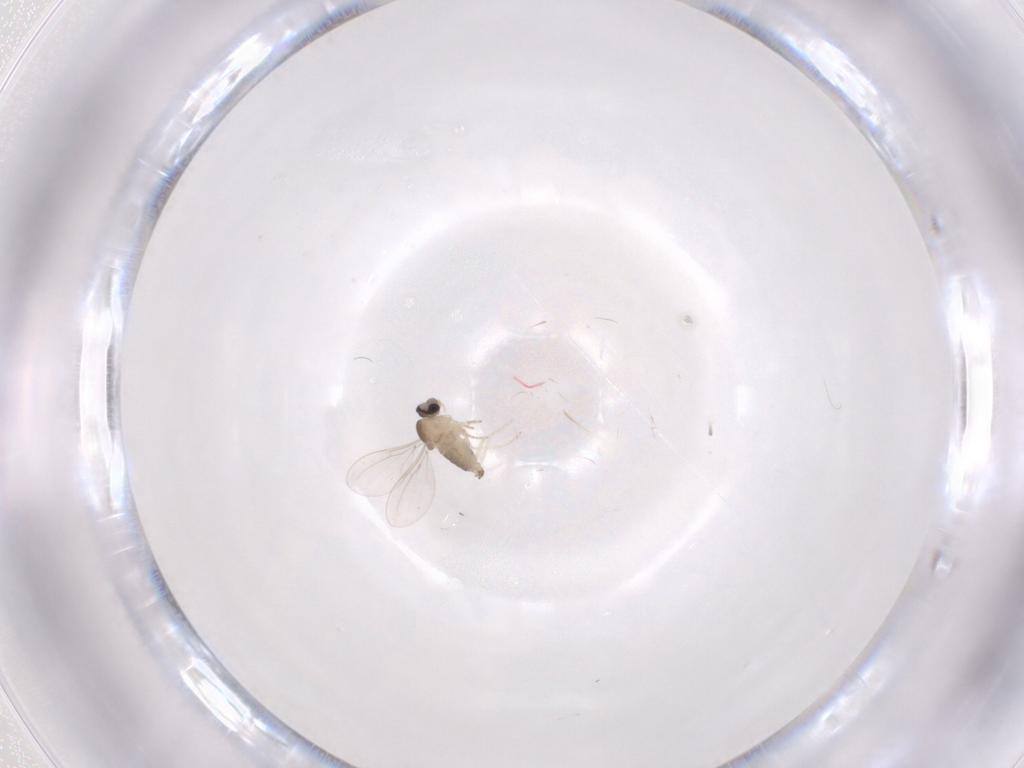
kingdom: Animalia
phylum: Arthropoda
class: Insecta
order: Diptera
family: Cecidomyiidae
